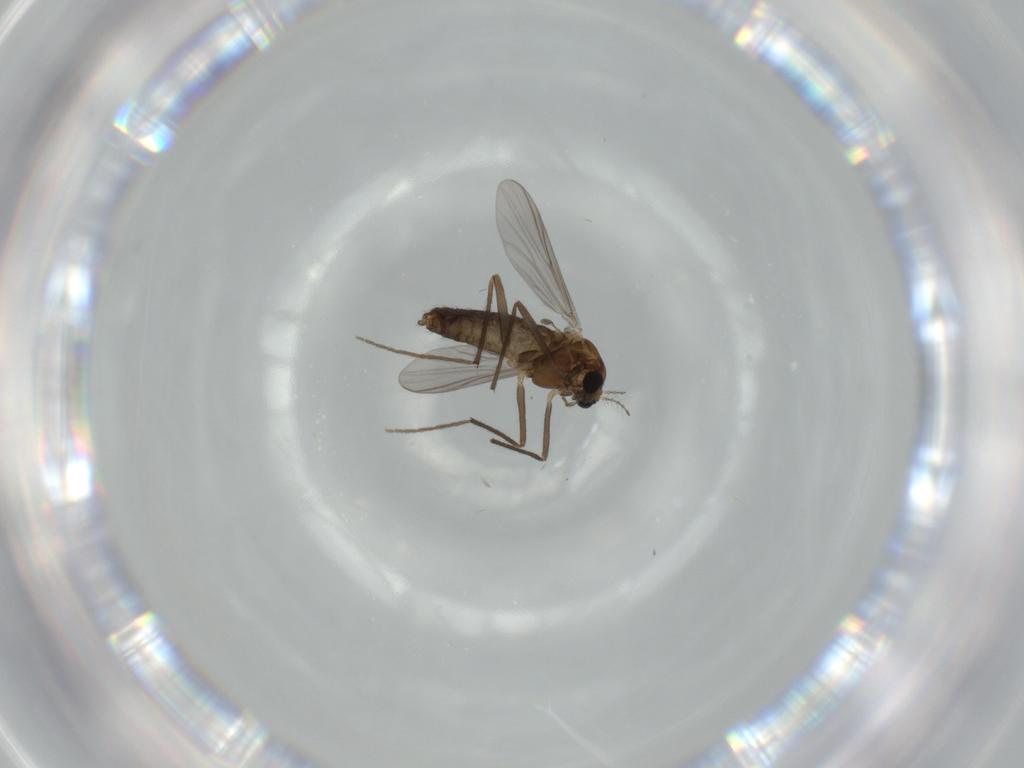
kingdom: Animalia
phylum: Arthropoda
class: Insecta
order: Diptera
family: Chironomidae
